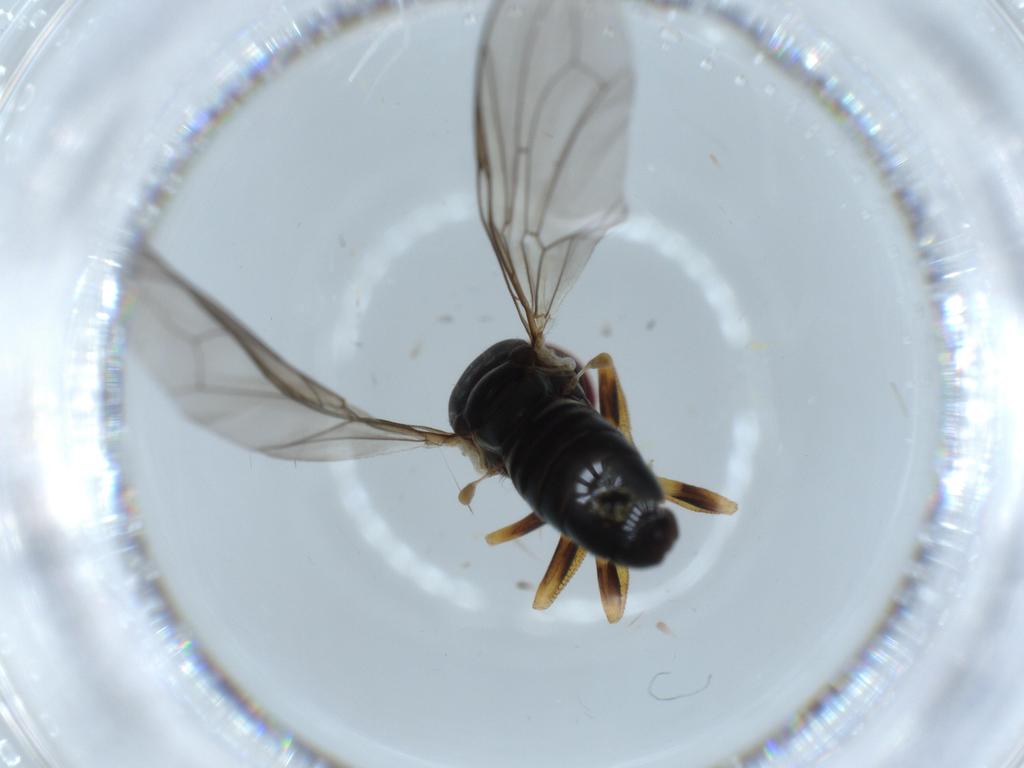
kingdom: Animalia
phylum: Arthropoda
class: Insecta
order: Diptera
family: Pipunculidae
